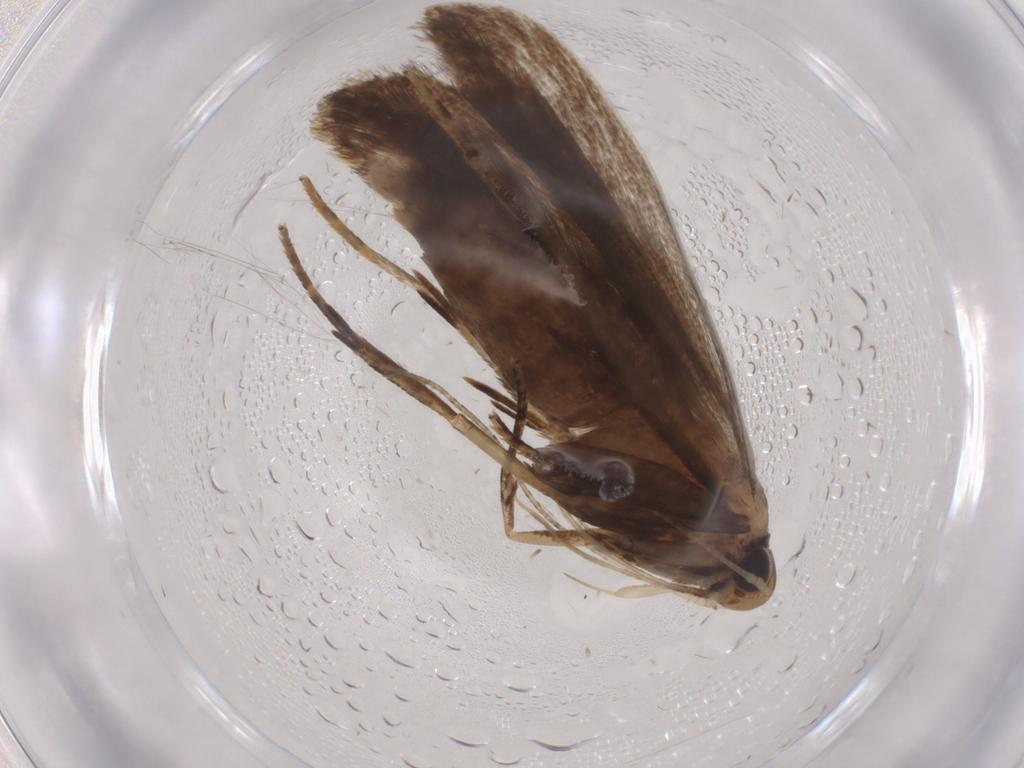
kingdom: Animalia
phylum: Arthropoda
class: Insecta
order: Lepidoptera
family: Gelechiidae
